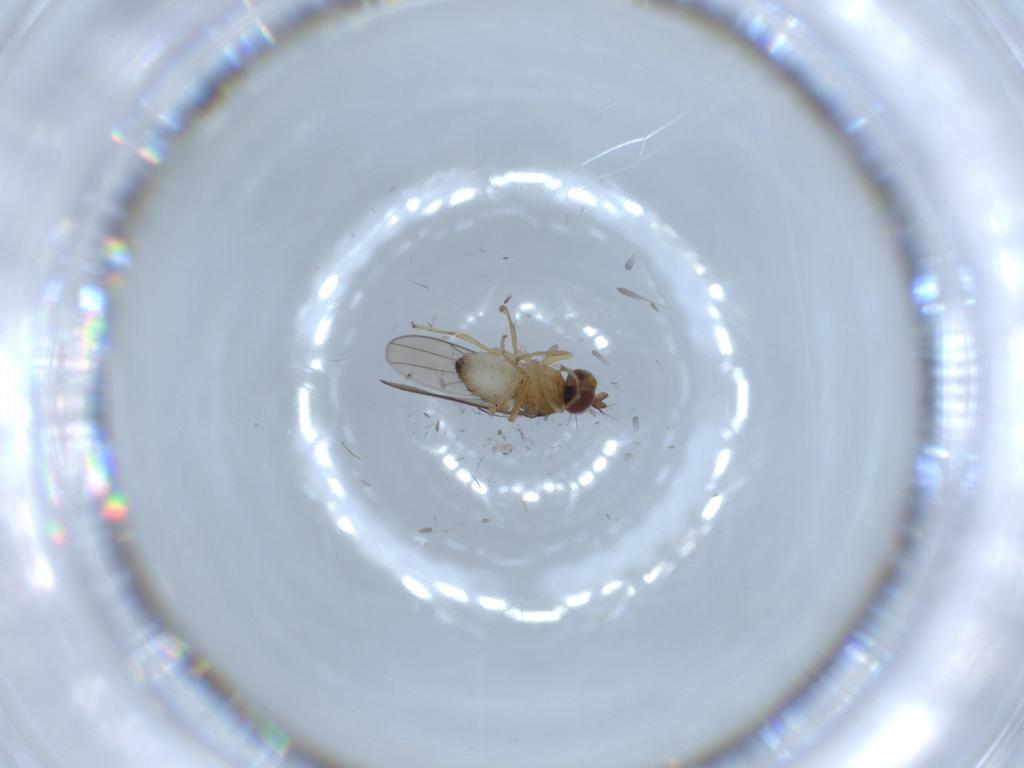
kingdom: Animalia
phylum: Arthropoda
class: Insecta
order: Diptera
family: Ephydridae
